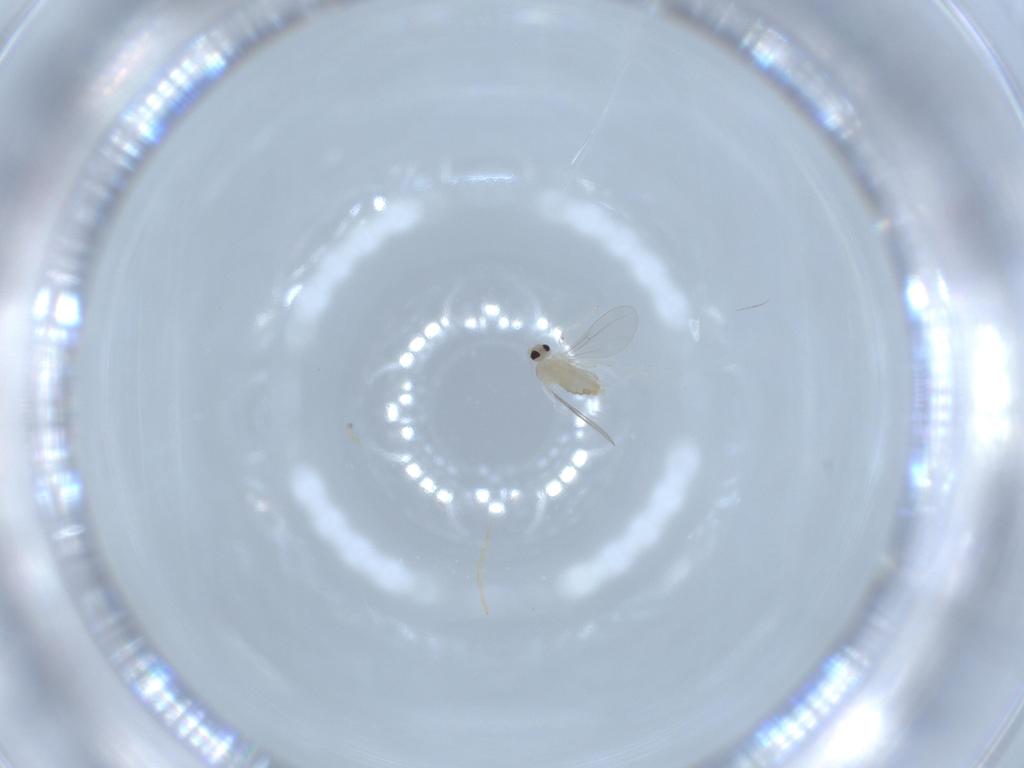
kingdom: Animalia
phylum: Arthropoda
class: Insecta
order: Diptera
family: Cecidomyiidae
